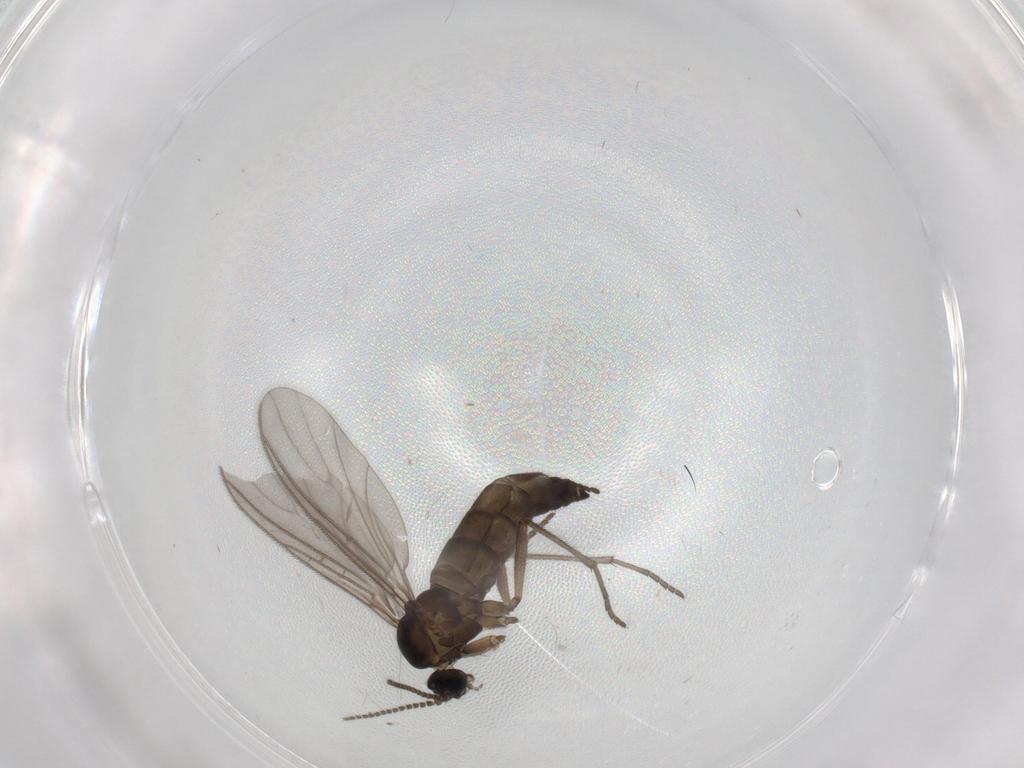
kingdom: Animalia
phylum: Arthropoda
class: Insecta
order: Diptera
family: Sciaridae
